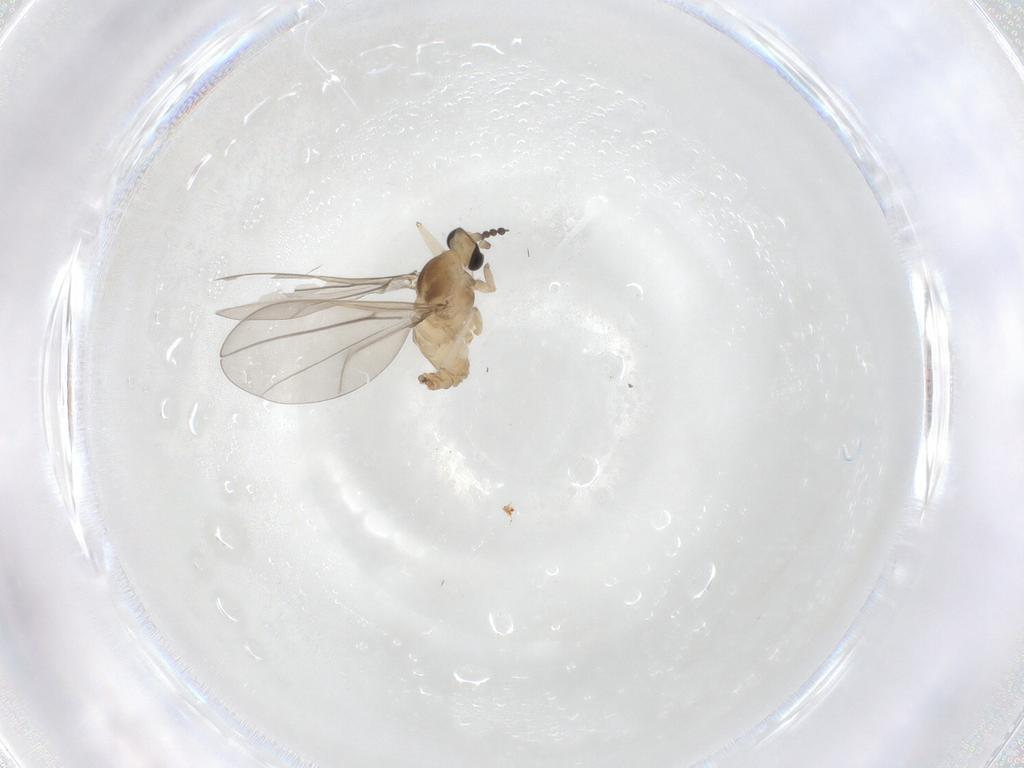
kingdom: Animalia
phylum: Arthropoda
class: Insecta
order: Diptera
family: Cecidomyiidae
